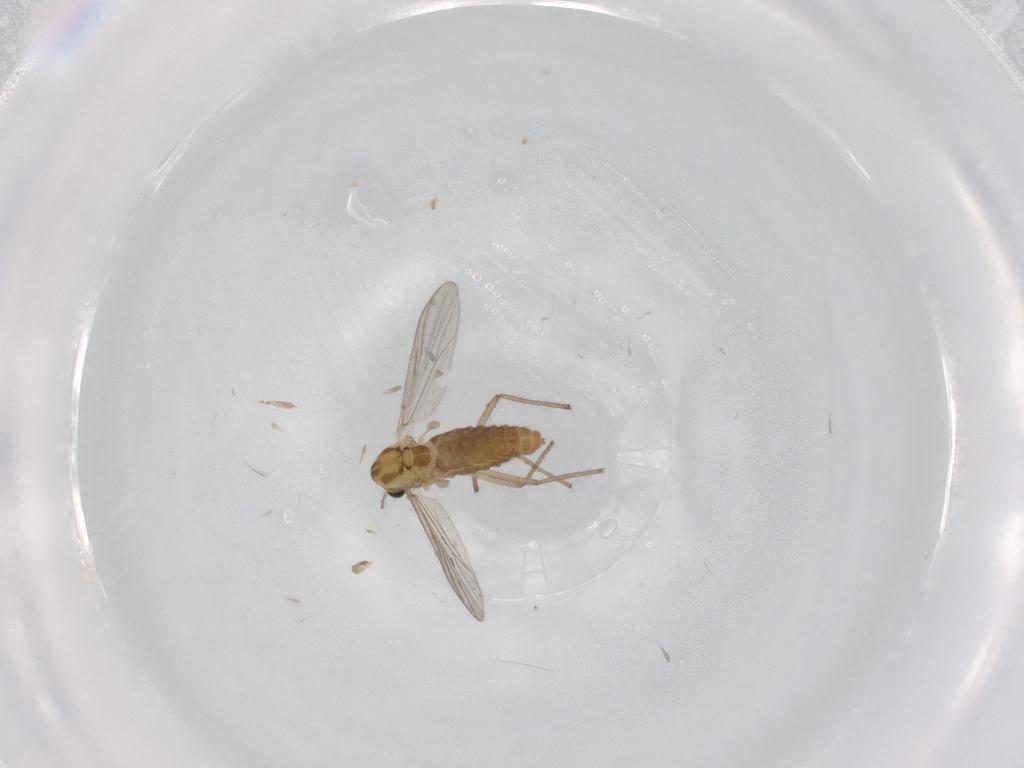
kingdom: Animalia
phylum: Arthropoda
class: Insecta
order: Diptera
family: Chironomidae
